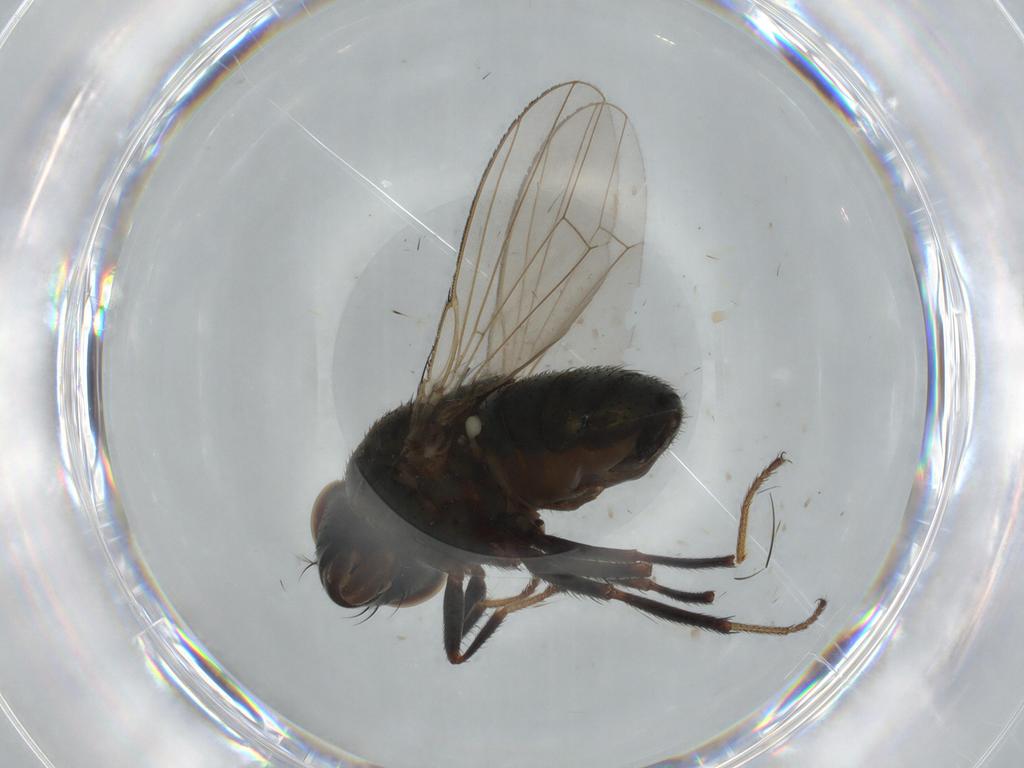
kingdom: Animalia
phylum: Arthropoda
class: Insecta
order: Diptera
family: Ephydridae
